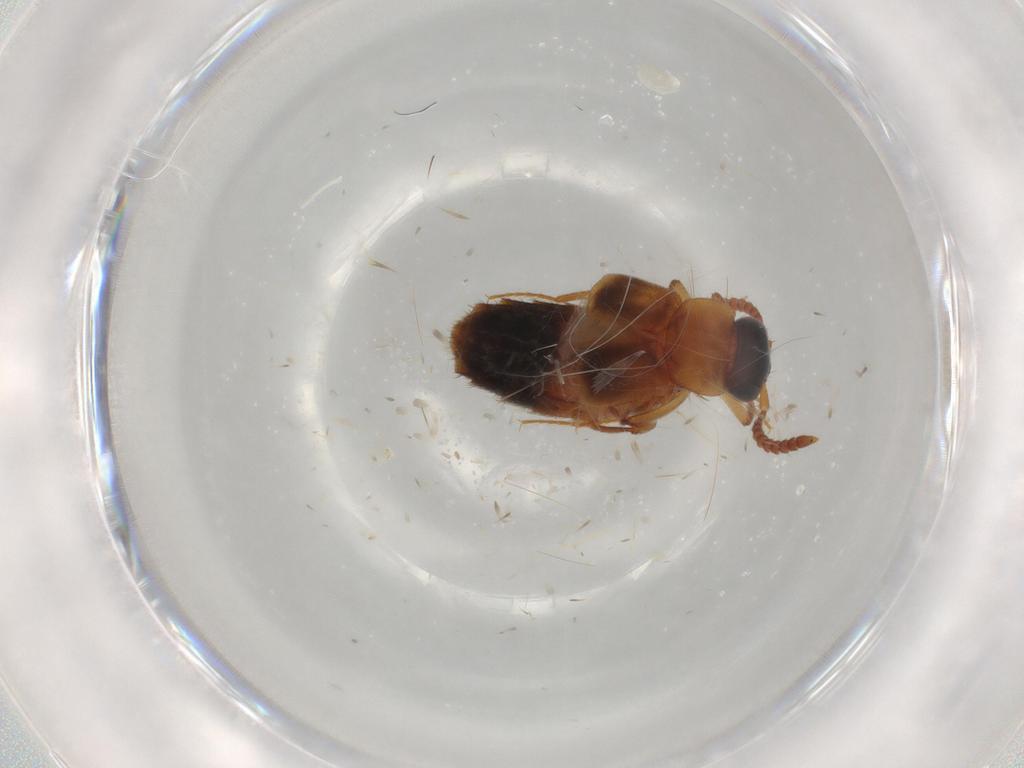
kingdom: Animalia
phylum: Arthropoda
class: Insecta
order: Coleoptera
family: Staphylinidae
